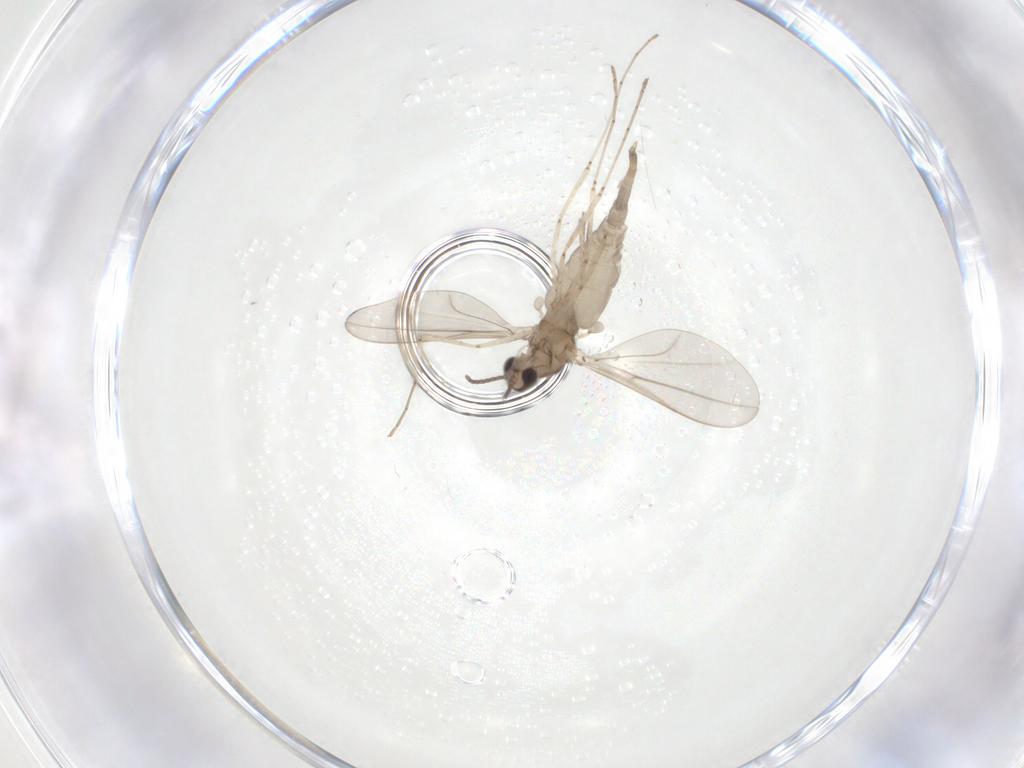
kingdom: Animalia
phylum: Arthropoda
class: Insecta
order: Diptera
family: Cecidomyiidae
